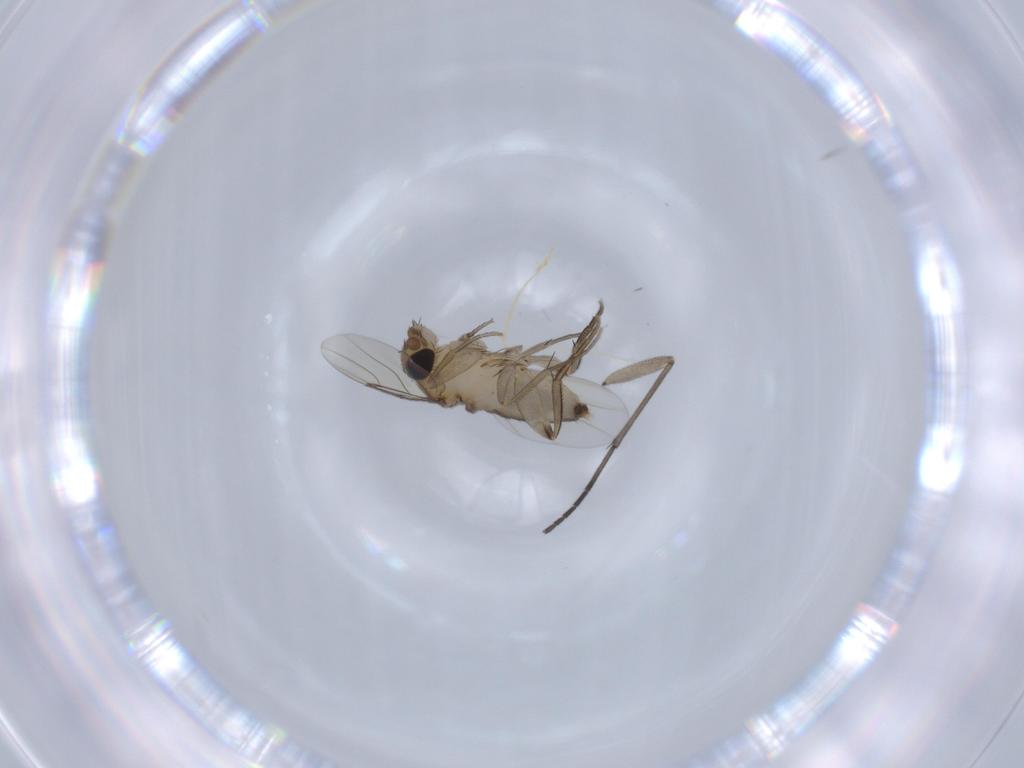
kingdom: Animalia
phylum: Arthropoda
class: Insecta
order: Diptera
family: Phoridae
